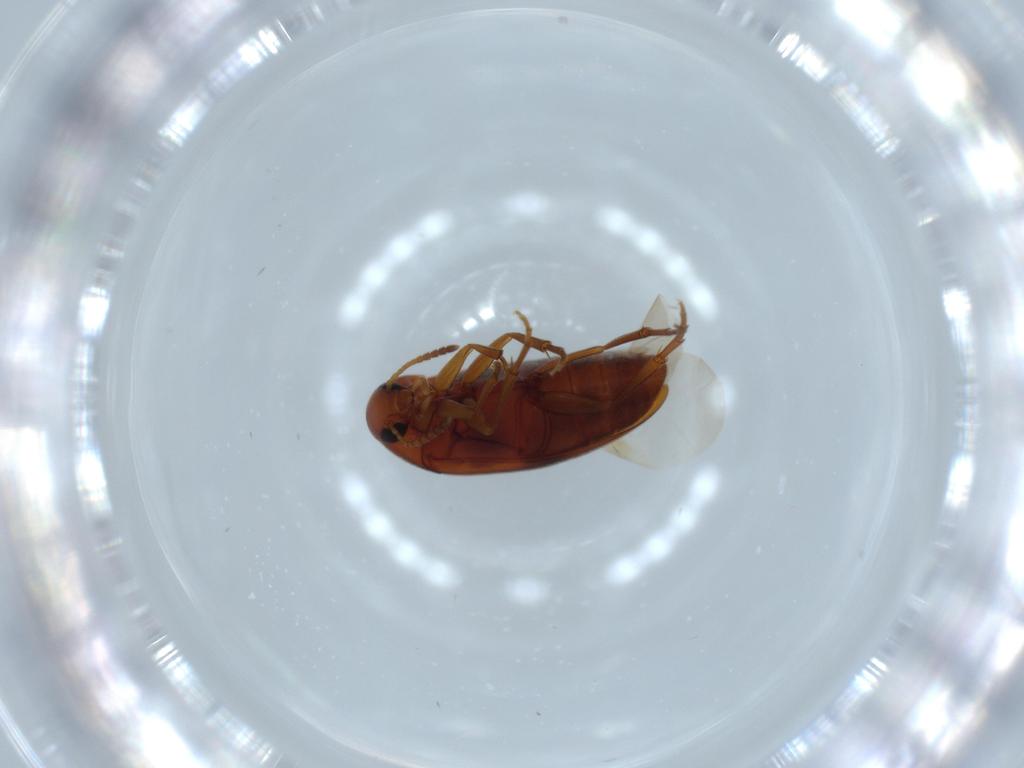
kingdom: Animalia
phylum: Arthropoda
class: Insecta
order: Coleoptera
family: Scraptiidae
